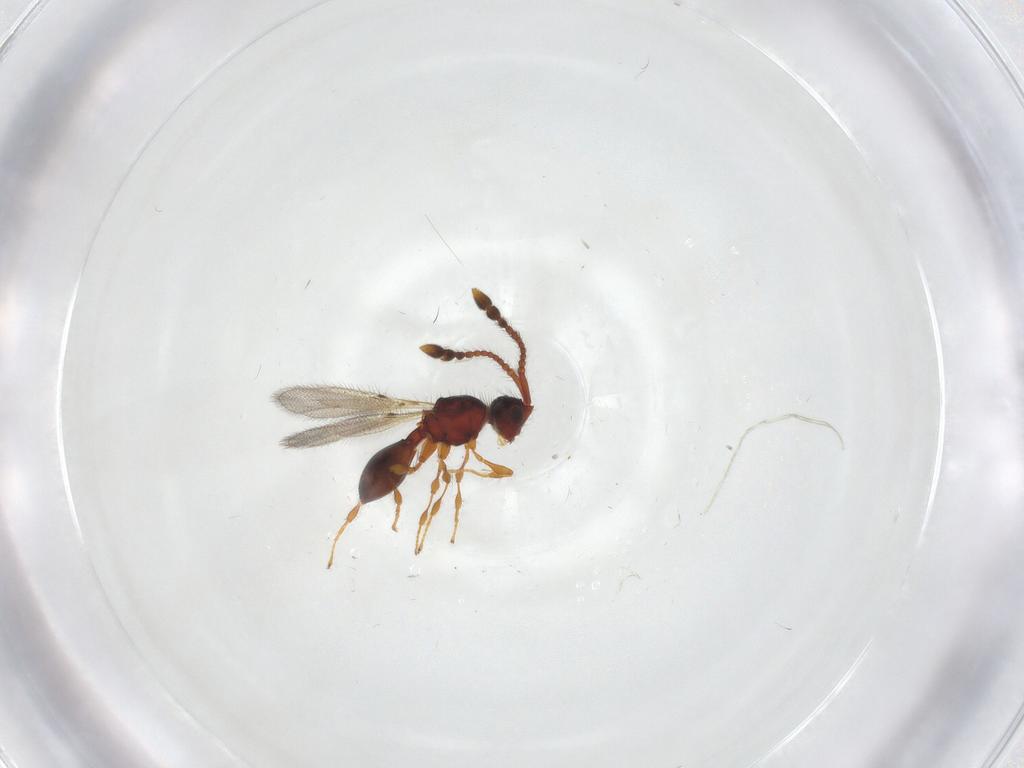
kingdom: Animalia
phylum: Arthropoda
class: Insecta
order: Hymenoptera
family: Diapriidae
